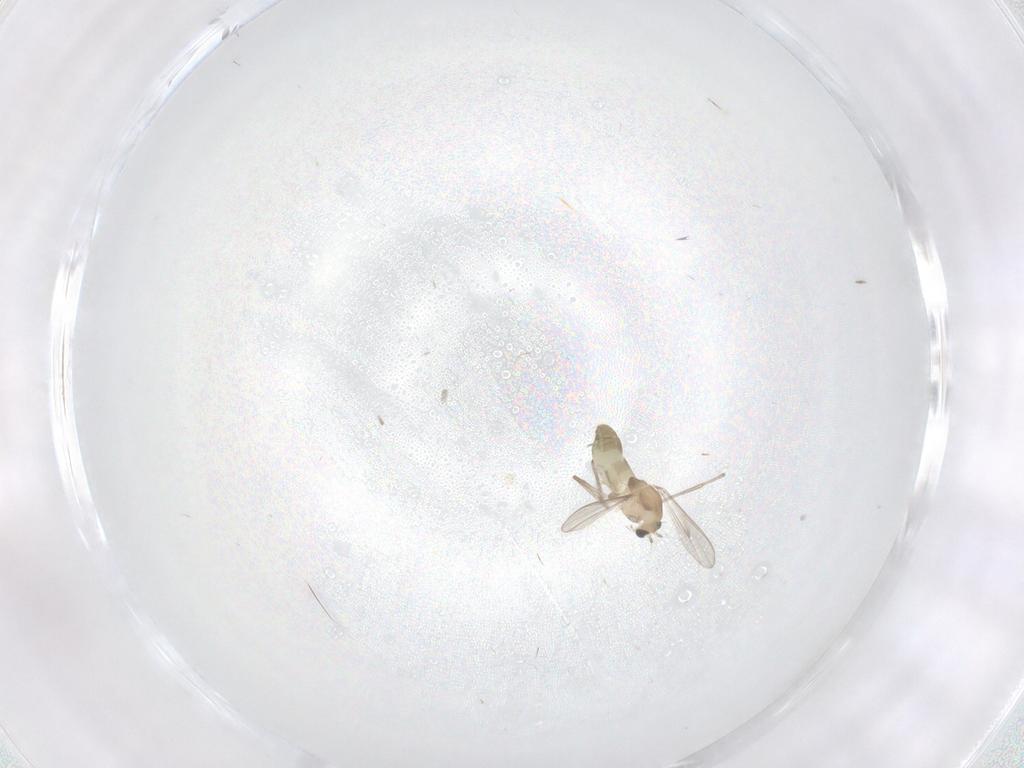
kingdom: Animalia
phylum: Arthropoda
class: Insecta
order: Diptera
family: Chironomidae
